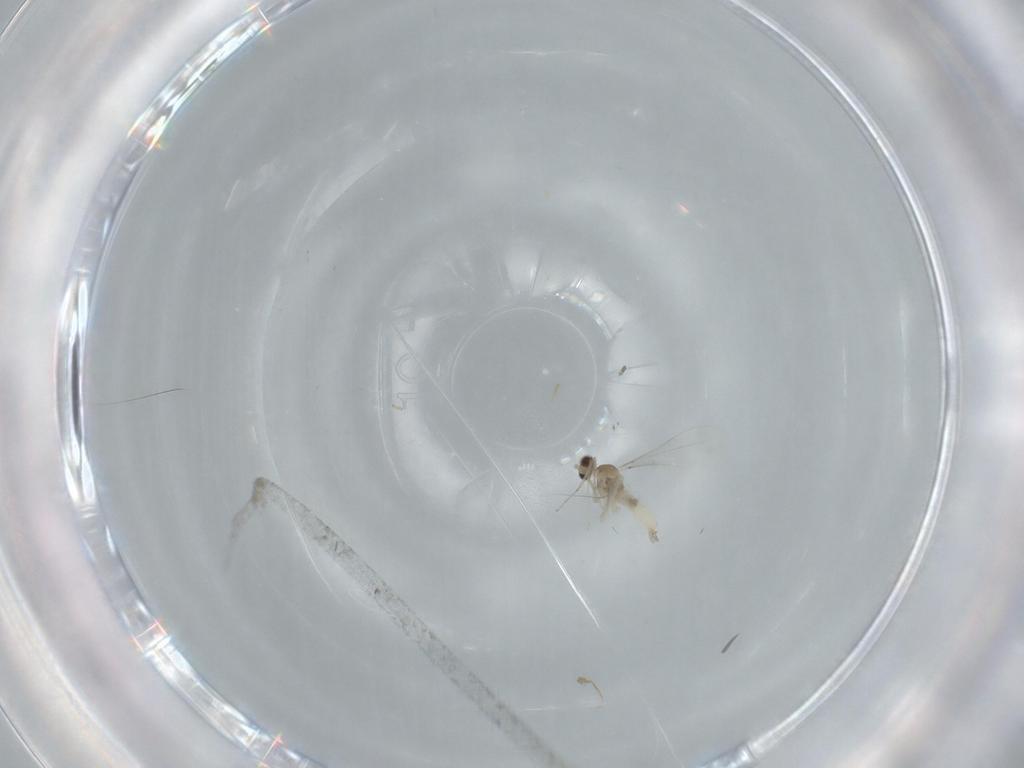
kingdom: Animalia
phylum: Arthropoda
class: Insecta
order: Diptera
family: Cecidomyiidae
